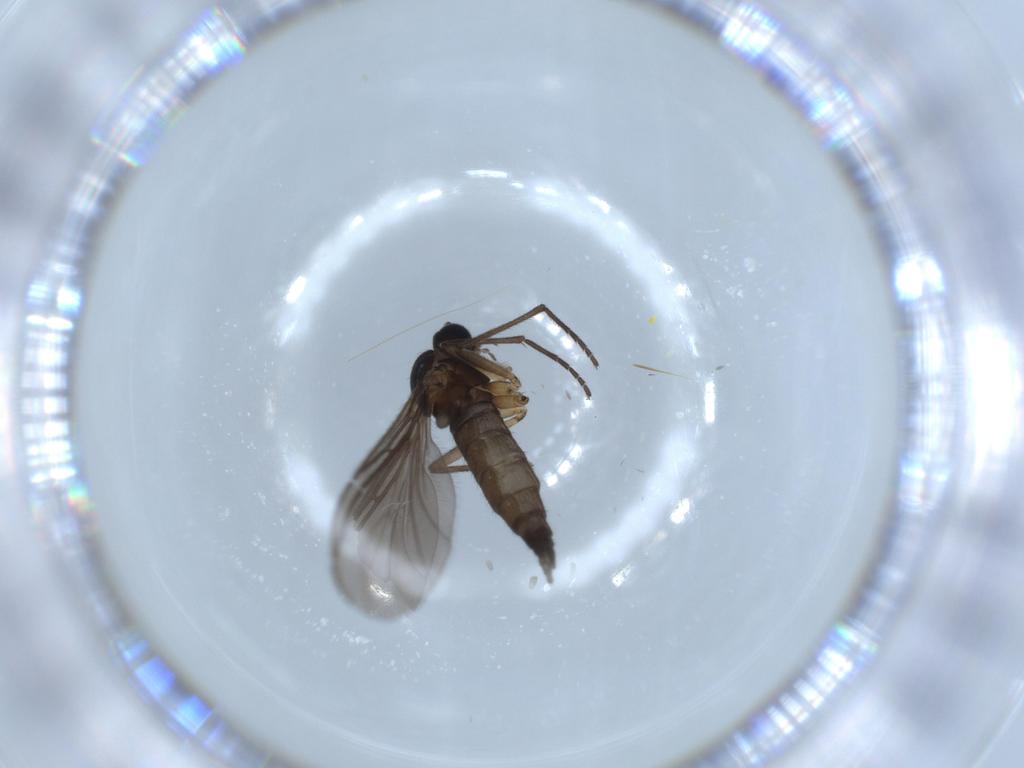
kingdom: Animalia
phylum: Arthropoda
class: Insecta
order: Diptera
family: Sciaridae
